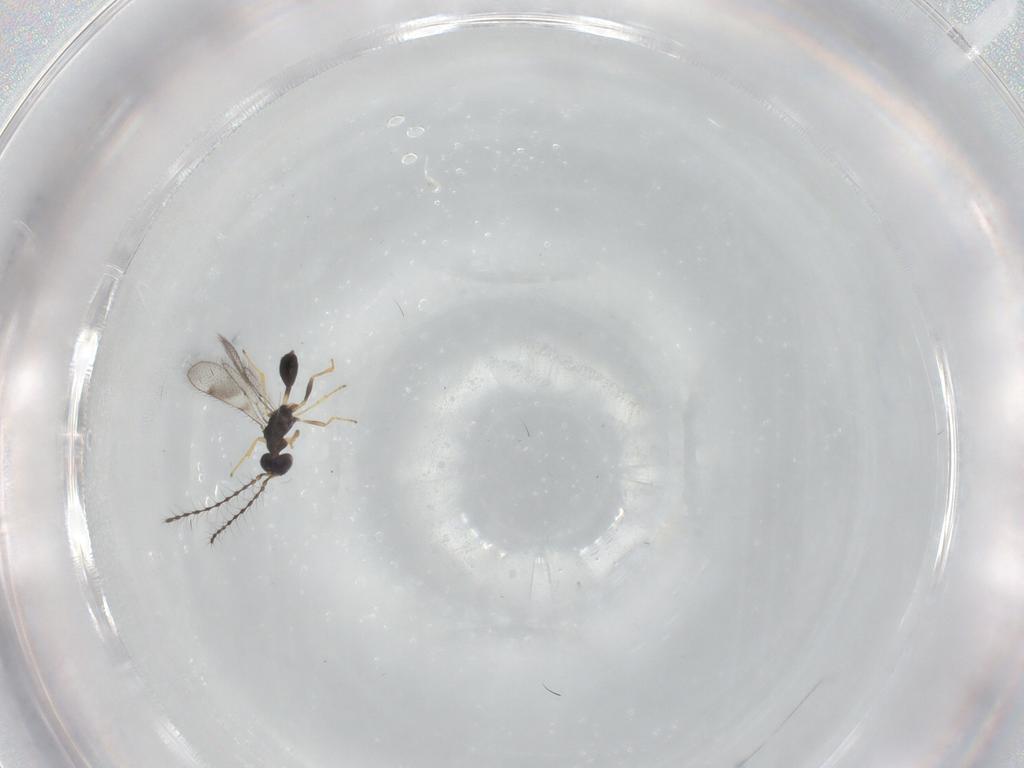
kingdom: Animalia
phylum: Arthropoda
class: Insecta
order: Hymenoptera
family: Diparidae
